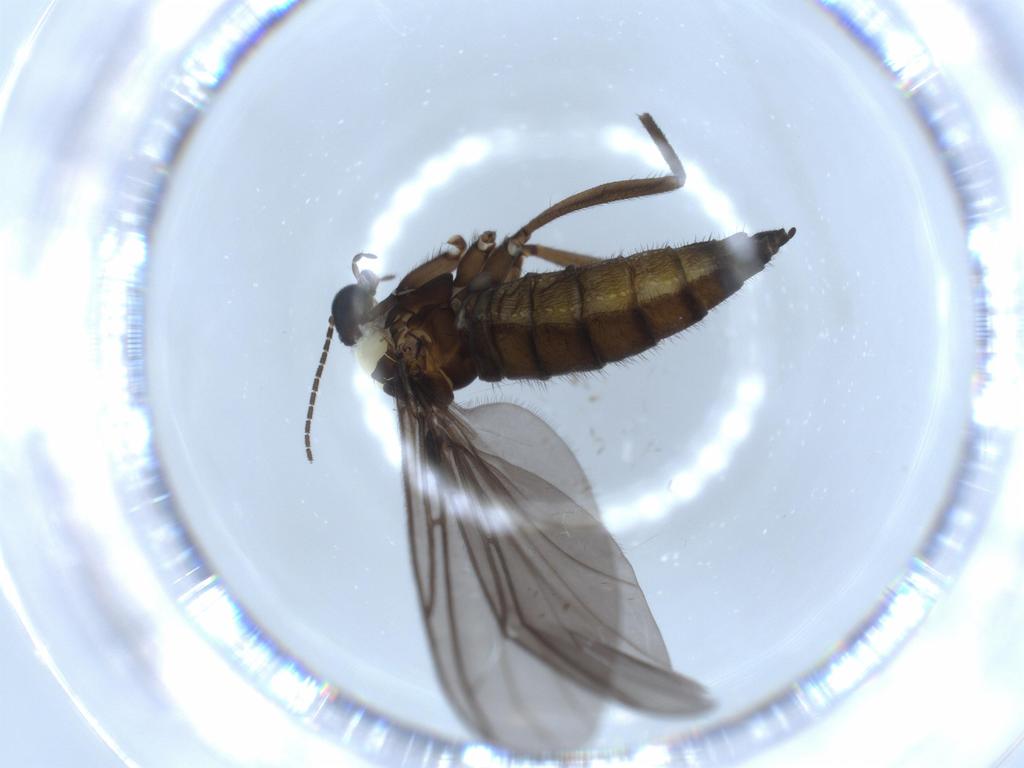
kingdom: Animalia
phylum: Arthropoda
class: Insecta
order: Diptera
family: Sciaridae
